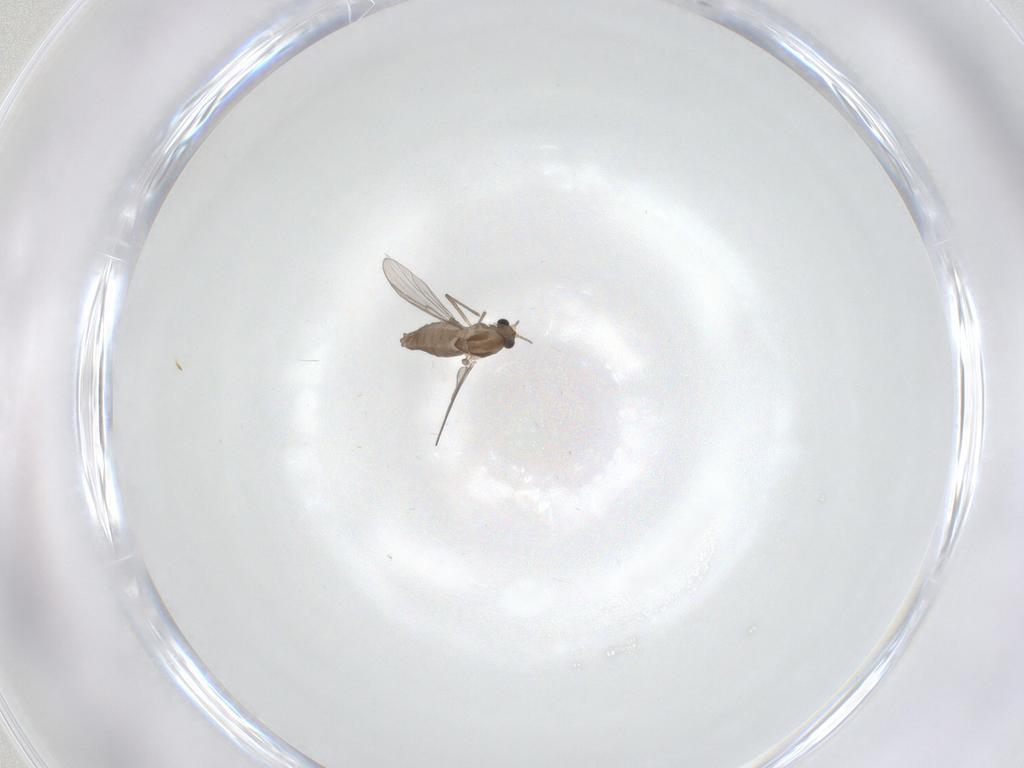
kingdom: Animalia
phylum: Arthropoda
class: Insecta
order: Diptera
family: Chironomidae
